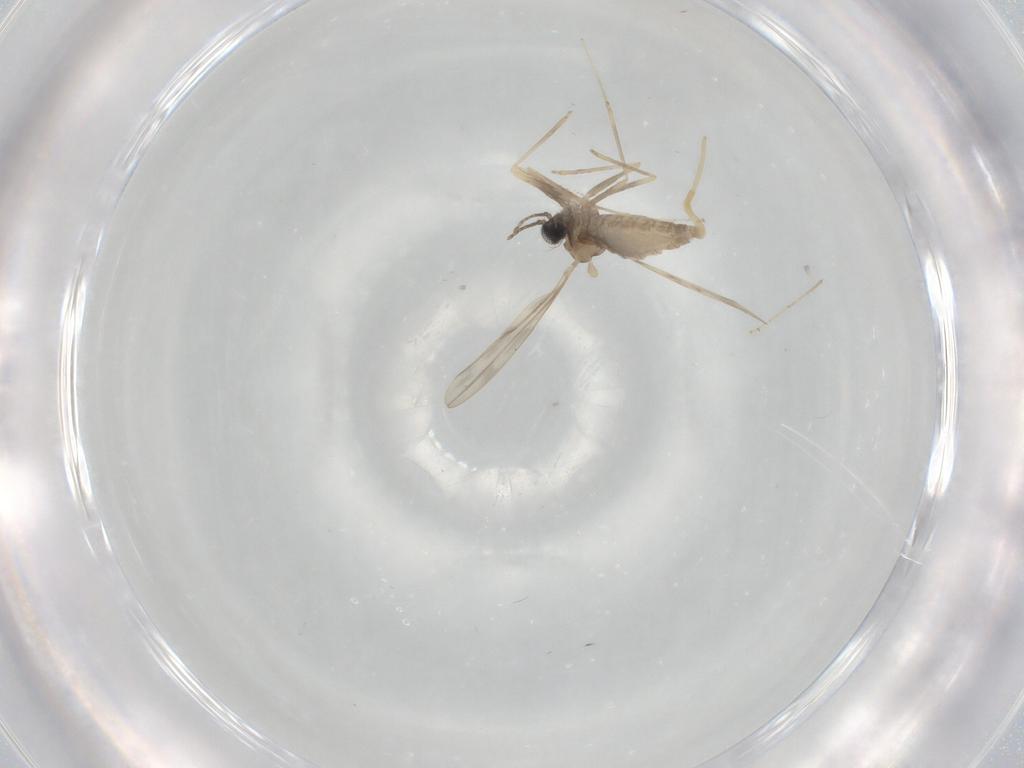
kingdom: Animalia
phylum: Arthropoda
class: Insecta
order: Diptera
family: Cecidomyiidae
